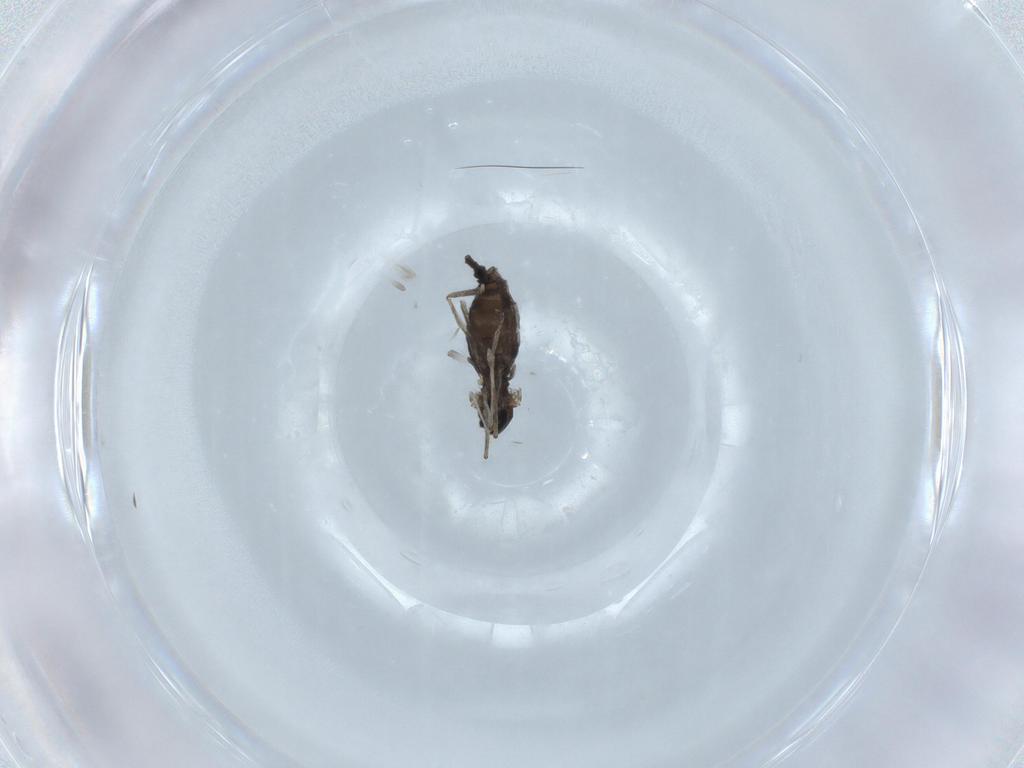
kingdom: Animalia
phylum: Arthropoda
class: Insecta
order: Diptera
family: Cecidomyiidae
